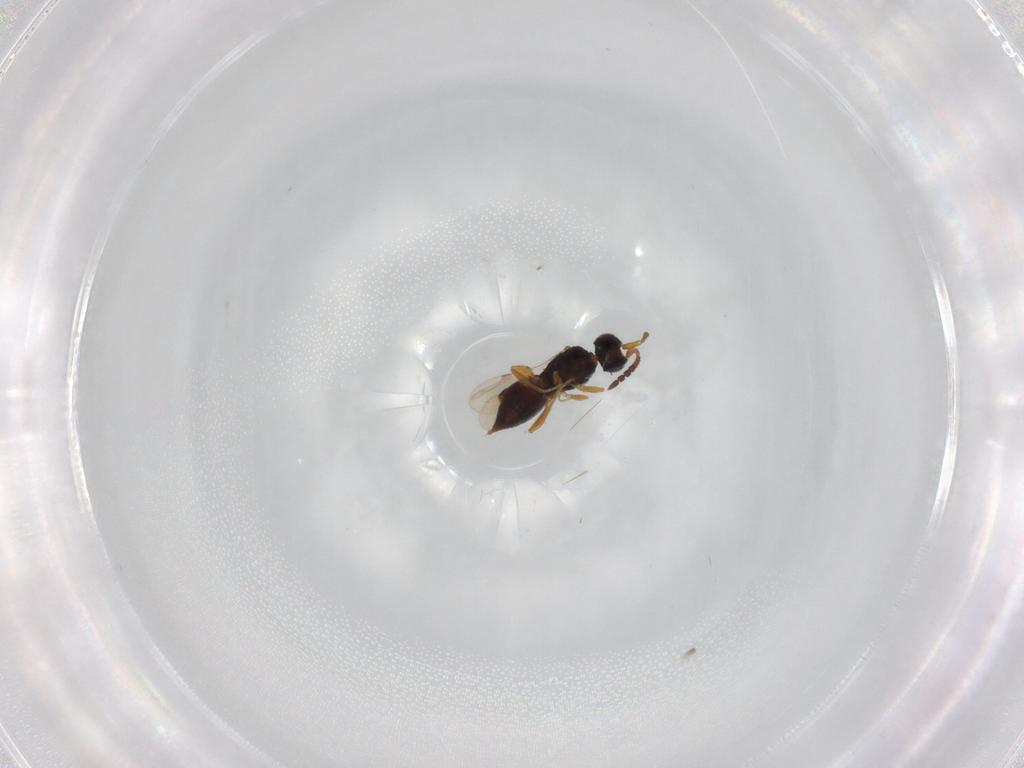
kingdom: Animalia
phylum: Arthropoda
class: Insecta
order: Hymenoptera
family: Mymaridae
